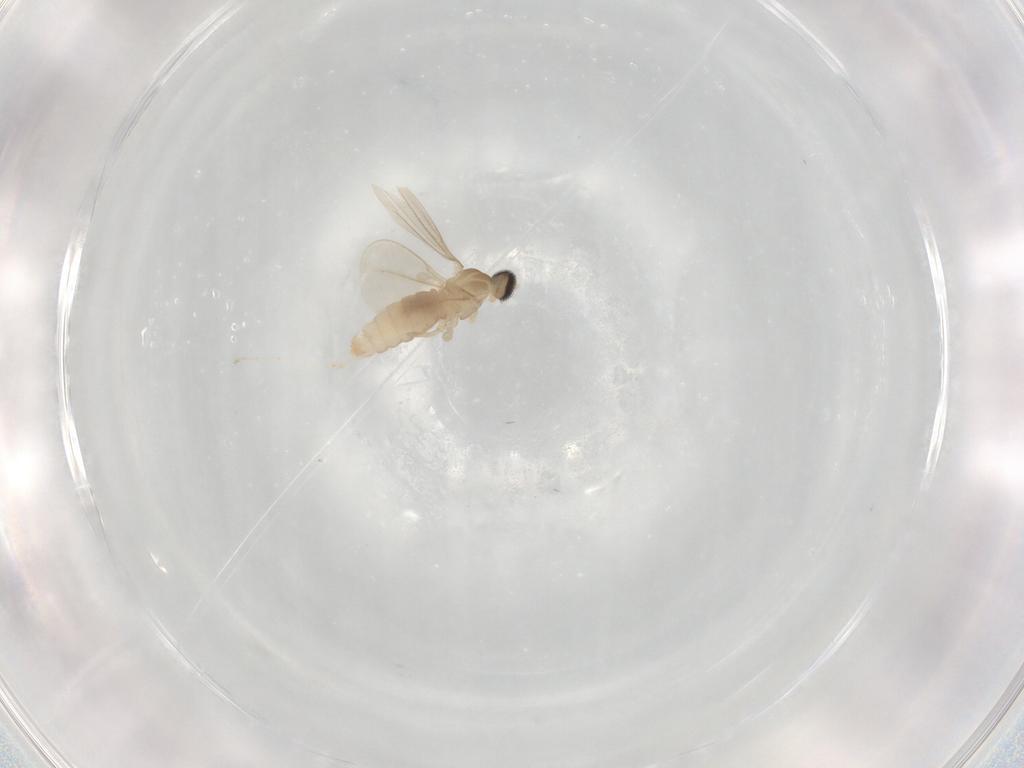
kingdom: Animalia
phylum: Arthropoda
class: Insecta
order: Diptera
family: Cecidomyiidae
